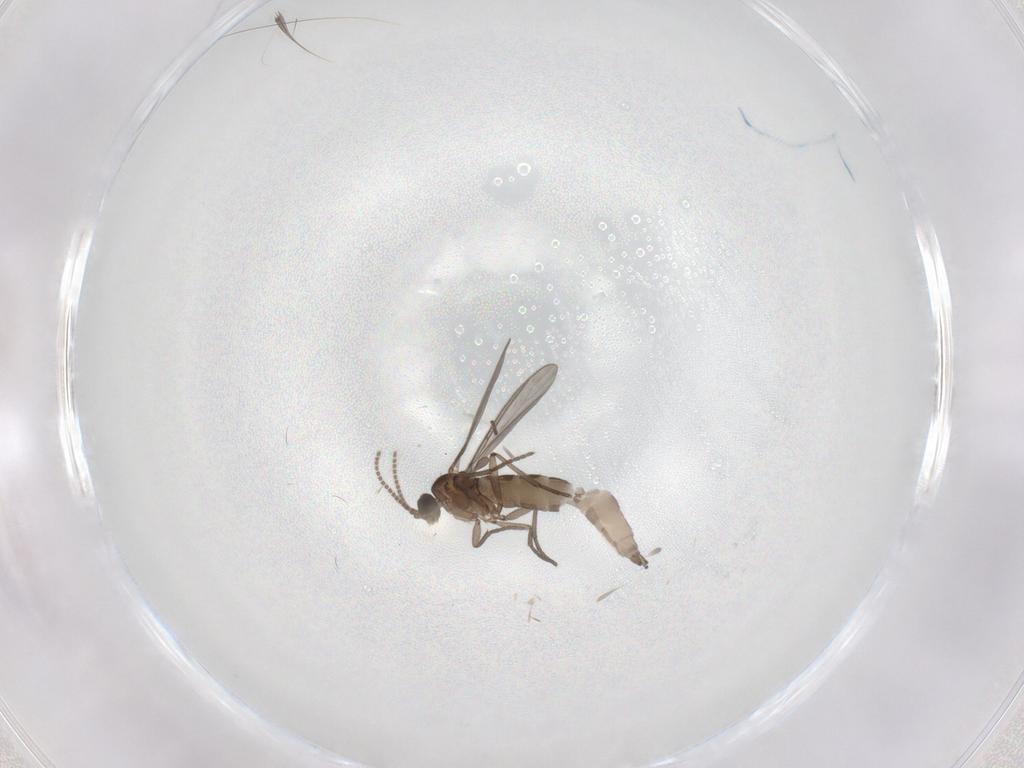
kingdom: Animalia
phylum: Arthropoda
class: Insecta
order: Diptera
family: Sciaridae
